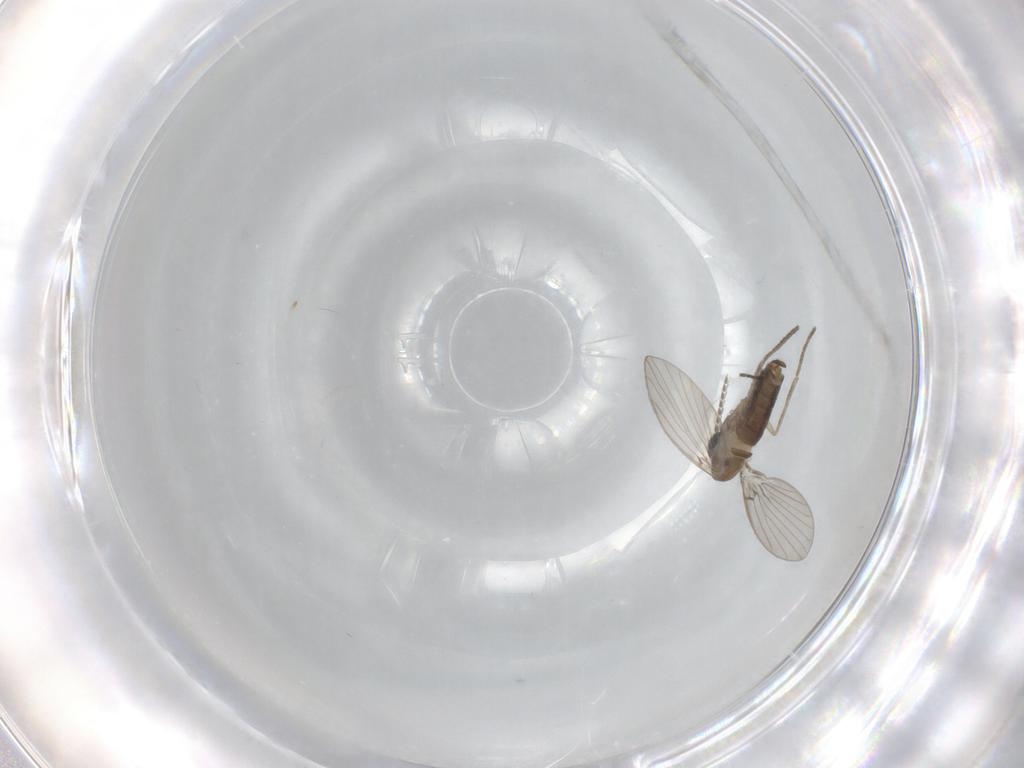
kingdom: Animalia
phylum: Arthropoda
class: Insecta
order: Diptera
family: Psychodidae
